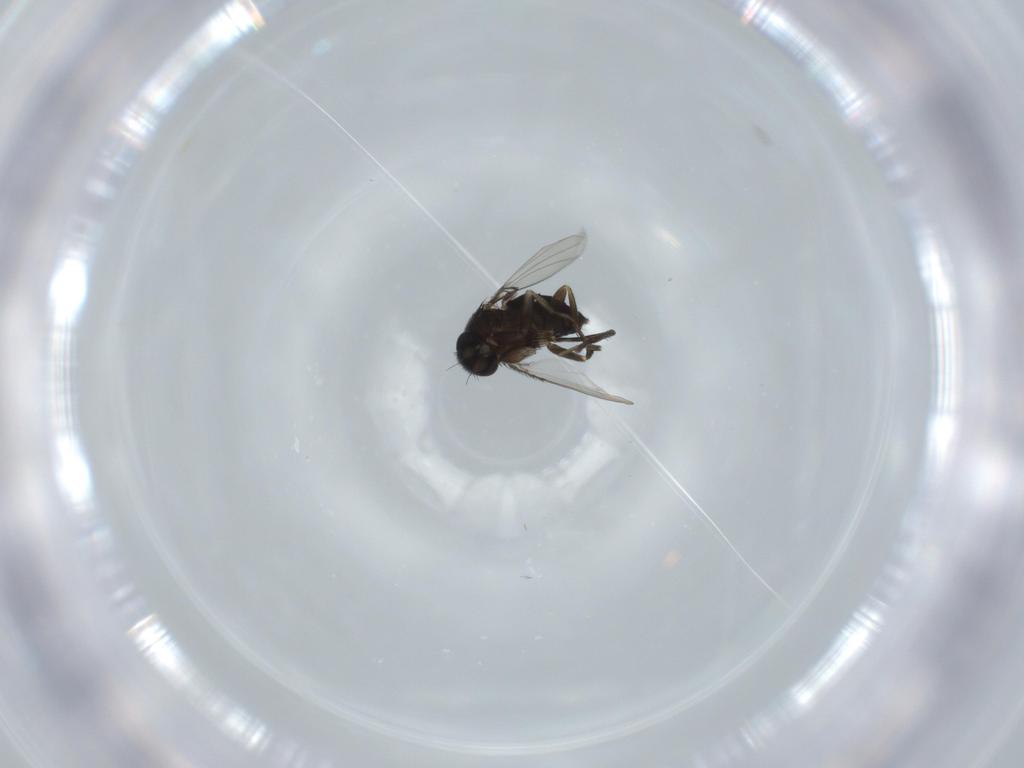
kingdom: Animalia
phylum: Arthropoda
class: Insecta
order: Diptera
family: Phoridae
